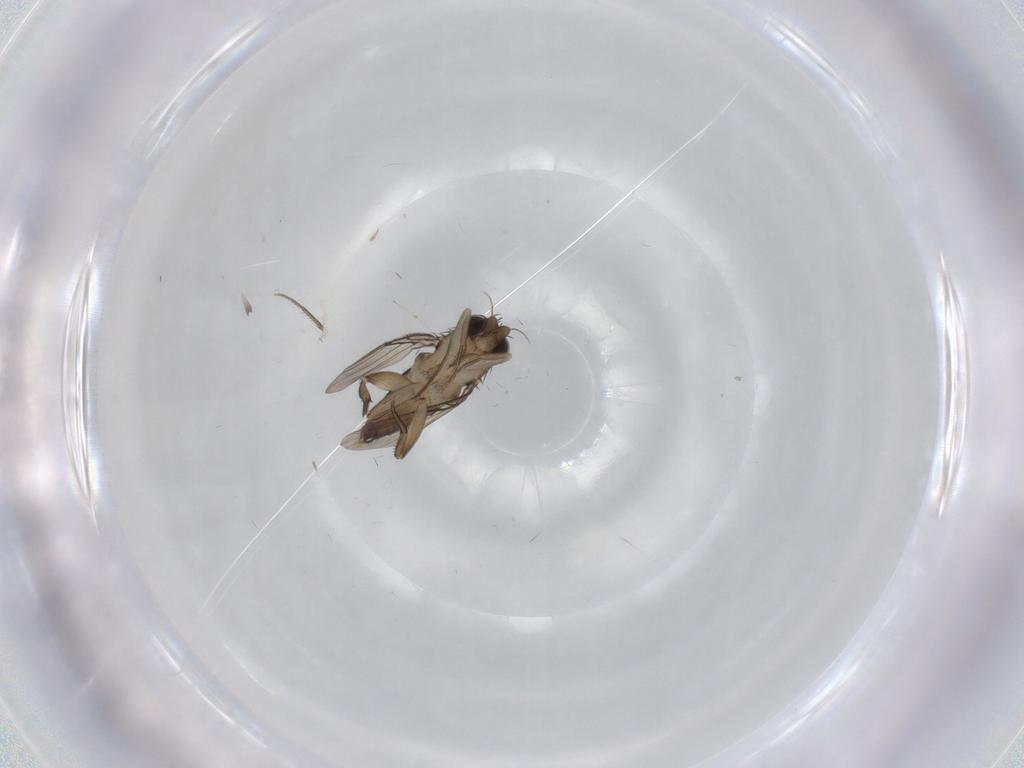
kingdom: Animalia
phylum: Arthropoda
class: Insecta
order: Diptera
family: Phoridae
